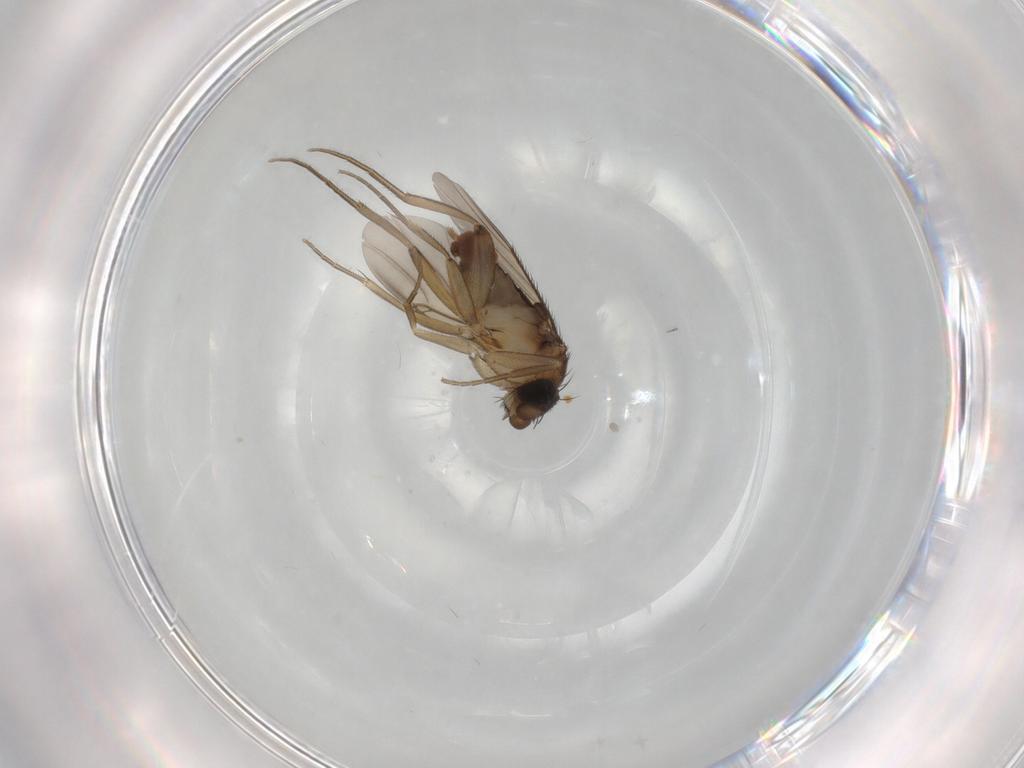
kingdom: Animalia
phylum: Arthropoda
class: Insecta
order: Diptera
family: Phoridae
